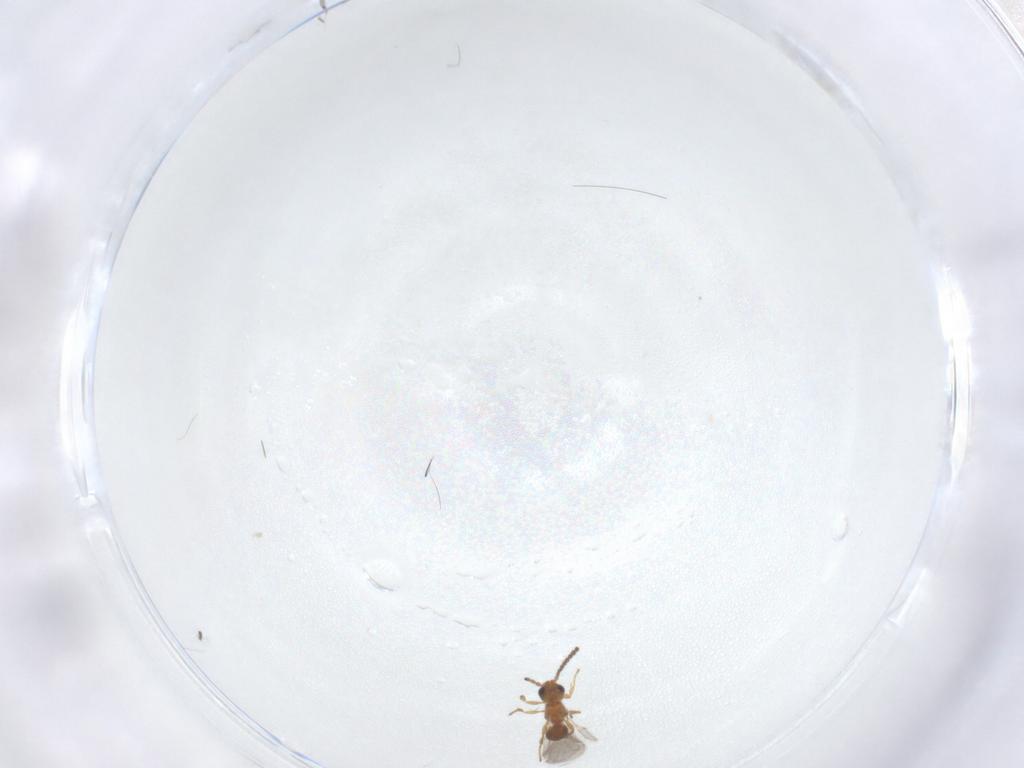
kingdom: Animalia
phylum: Arthropoda
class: Insecta
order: Hymenoptera
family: Diapriidae
